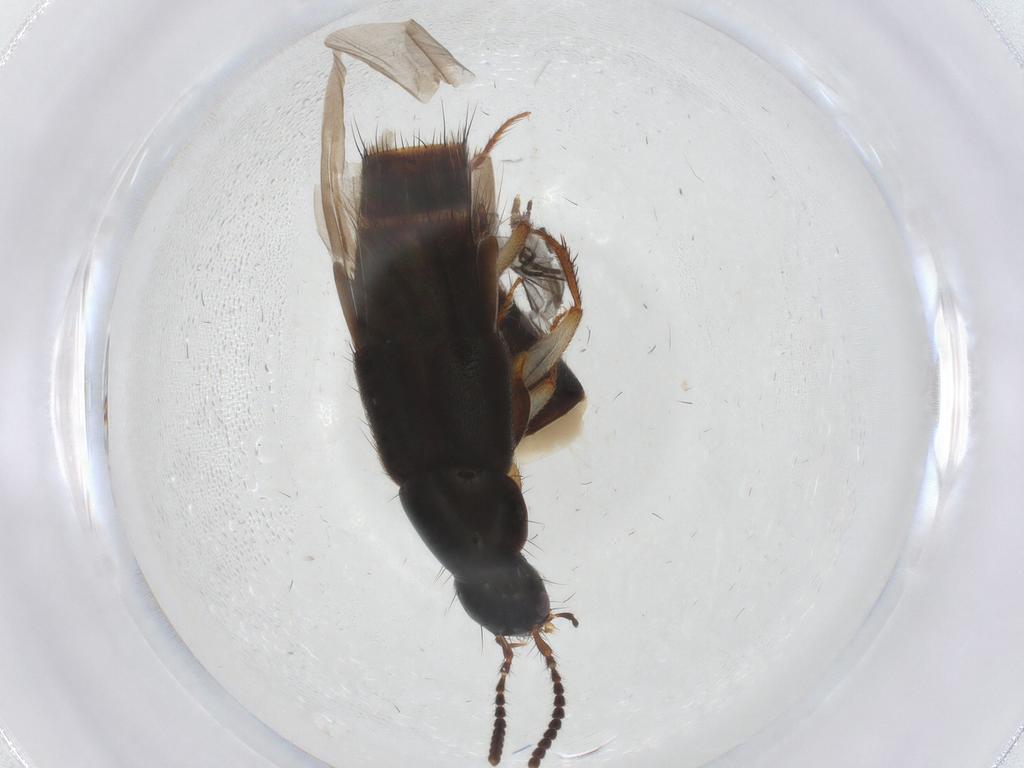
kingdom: Animalia
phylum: Arthropoda
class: Insecta
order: Coleoptera
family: Staphylinidae
